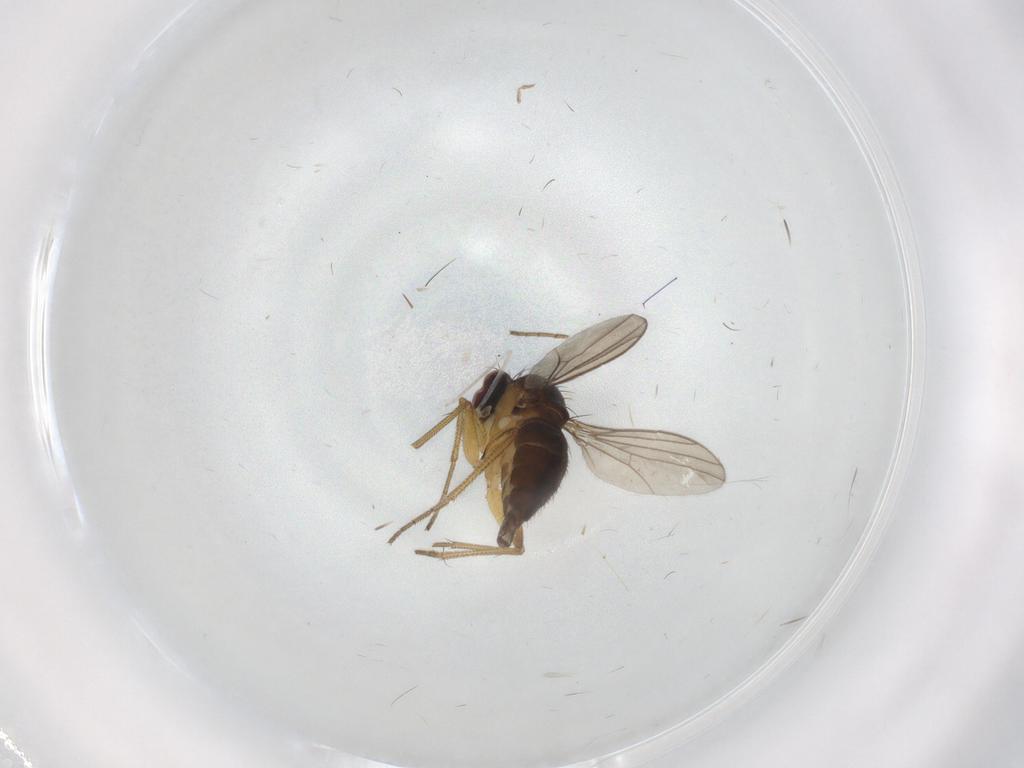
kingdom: Animalia
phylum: Arthropoda
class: Insecta
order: Diptera
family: Dolichopodidae
